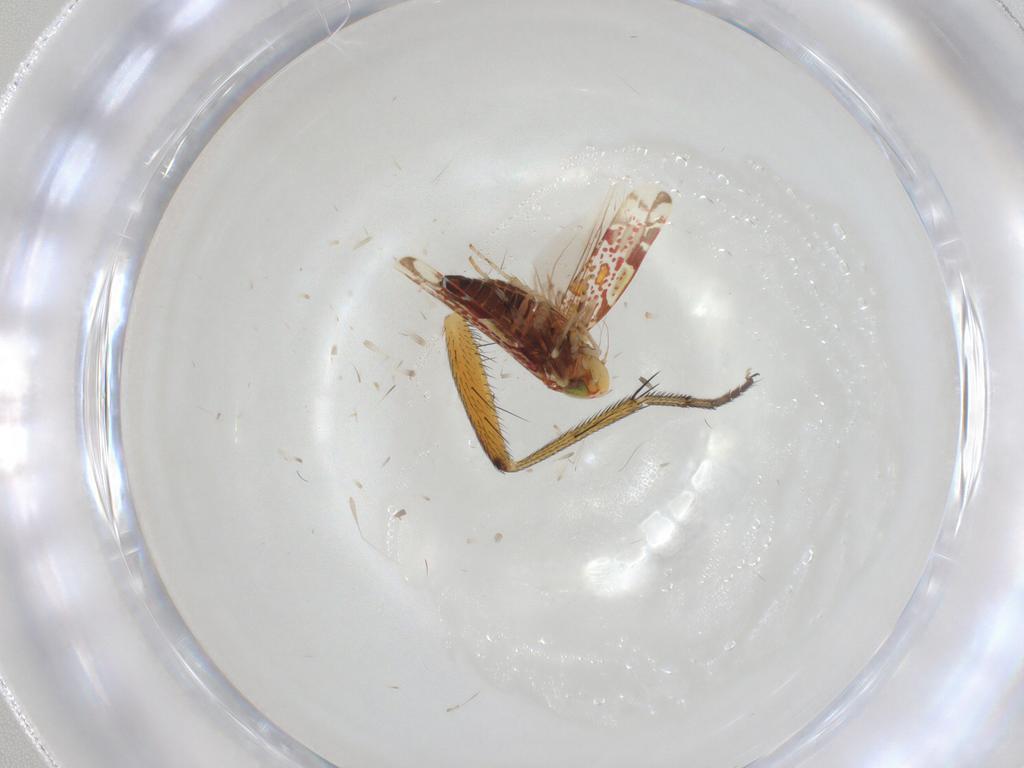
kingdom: Animalia
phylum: Arthropoda
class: Insecta
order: Hemiptera
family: Cicadellidae
